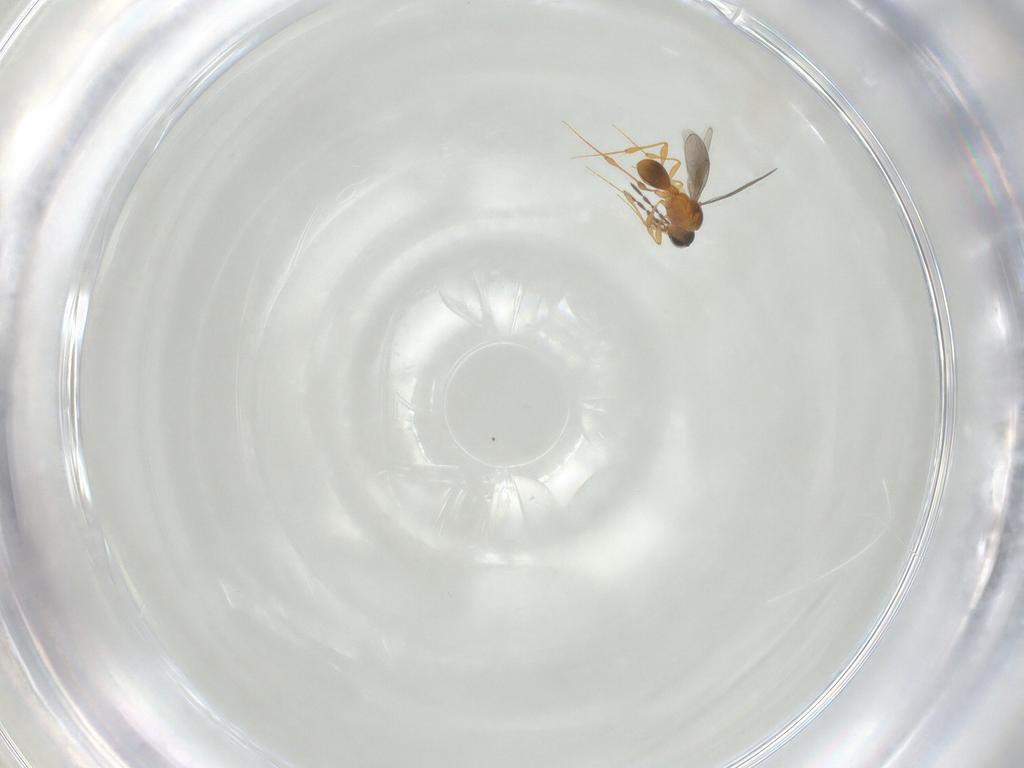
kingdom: Animalia
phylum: Arthropoda
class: Insecta
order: Hymenoptera
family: Platygastridae
